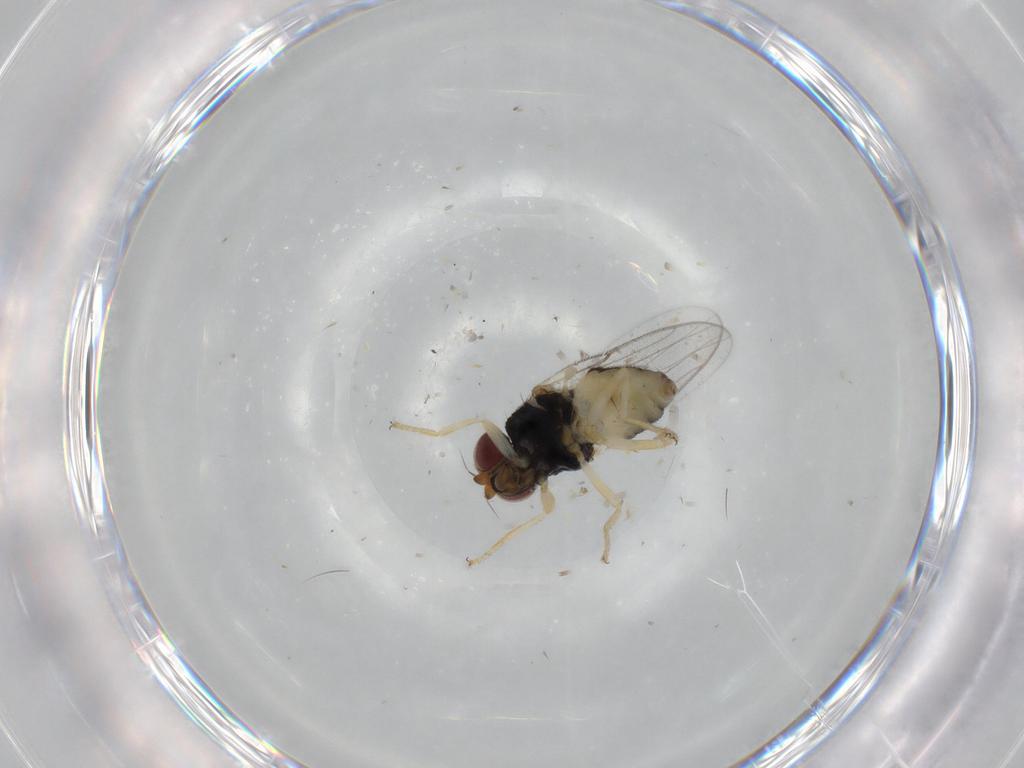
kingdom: Animalia
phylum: Arthropoda
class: Insecta
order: Diptera
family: Chloropidae
